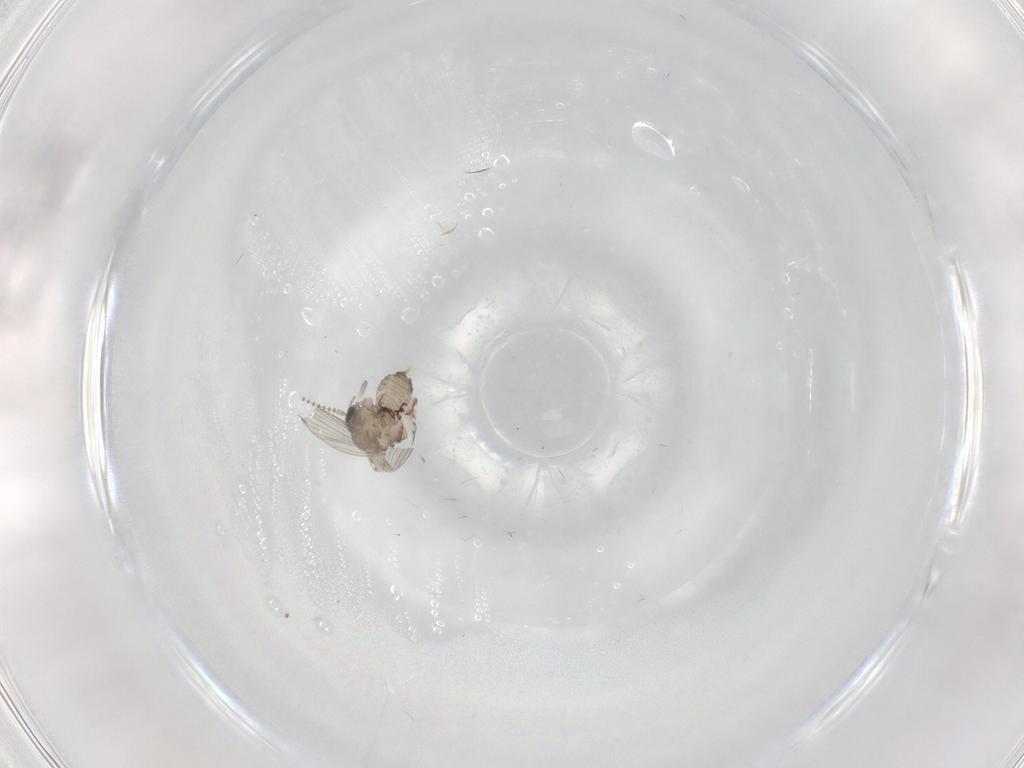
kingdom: Animalia
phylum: Arthropoda
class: Insecta
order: Diptera
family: Psychodidae
